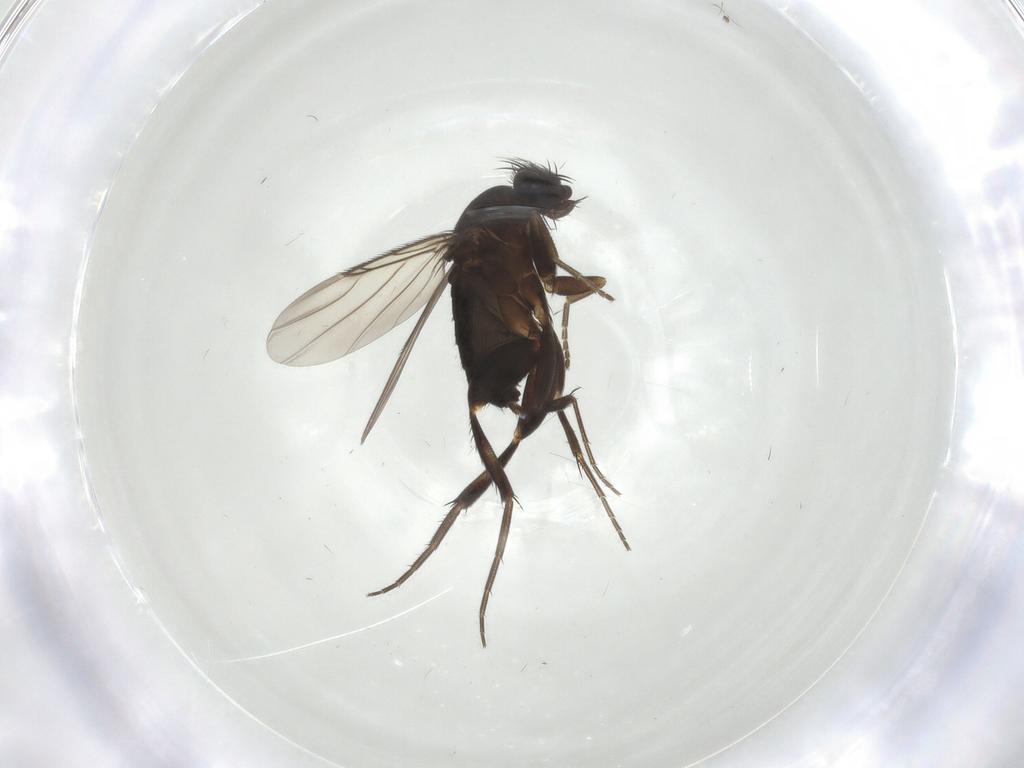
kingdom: Animalia
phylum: Arthropoda
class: Insecta
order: Diptera
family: Phoridae
